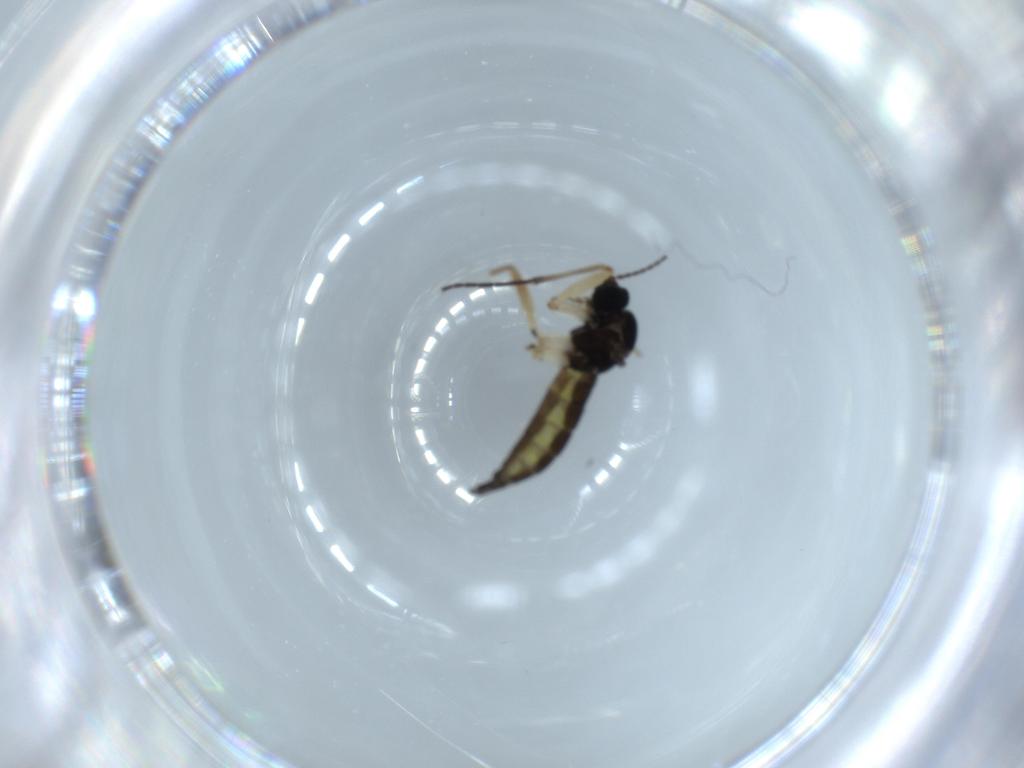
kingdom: Animalia
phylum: Arthropoda
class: Insecta
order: Diptera
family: Sciaridae
